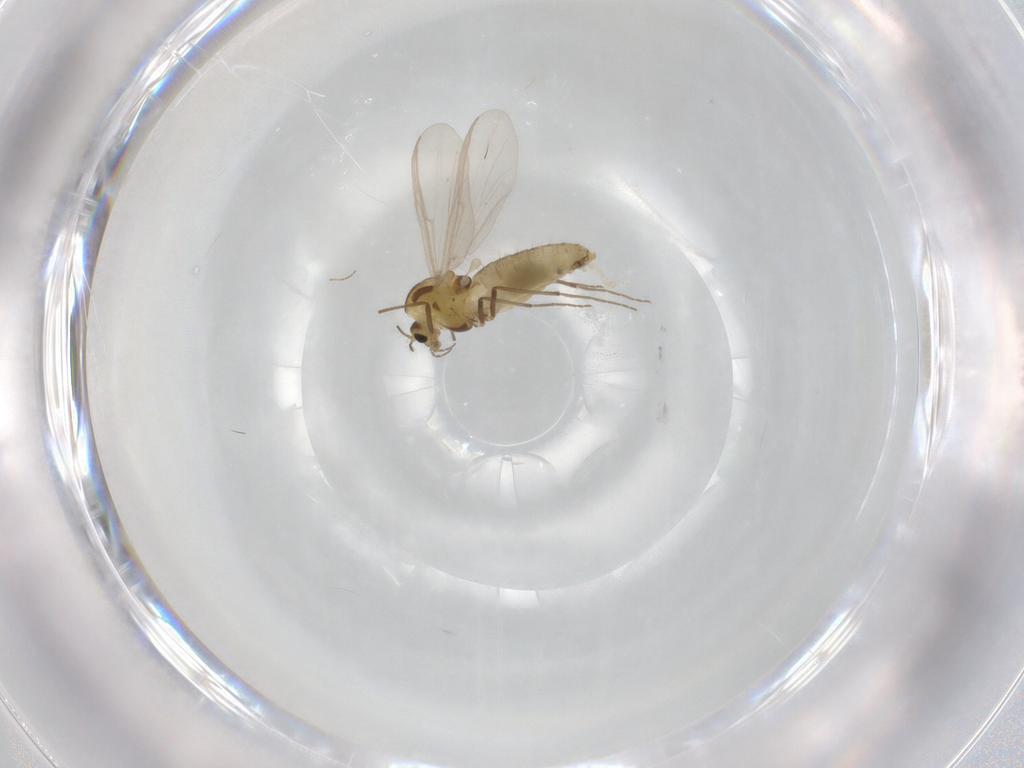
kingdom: Animalia
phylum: Arthropoda
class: Insecta
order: Diptera
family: Chironomidae
